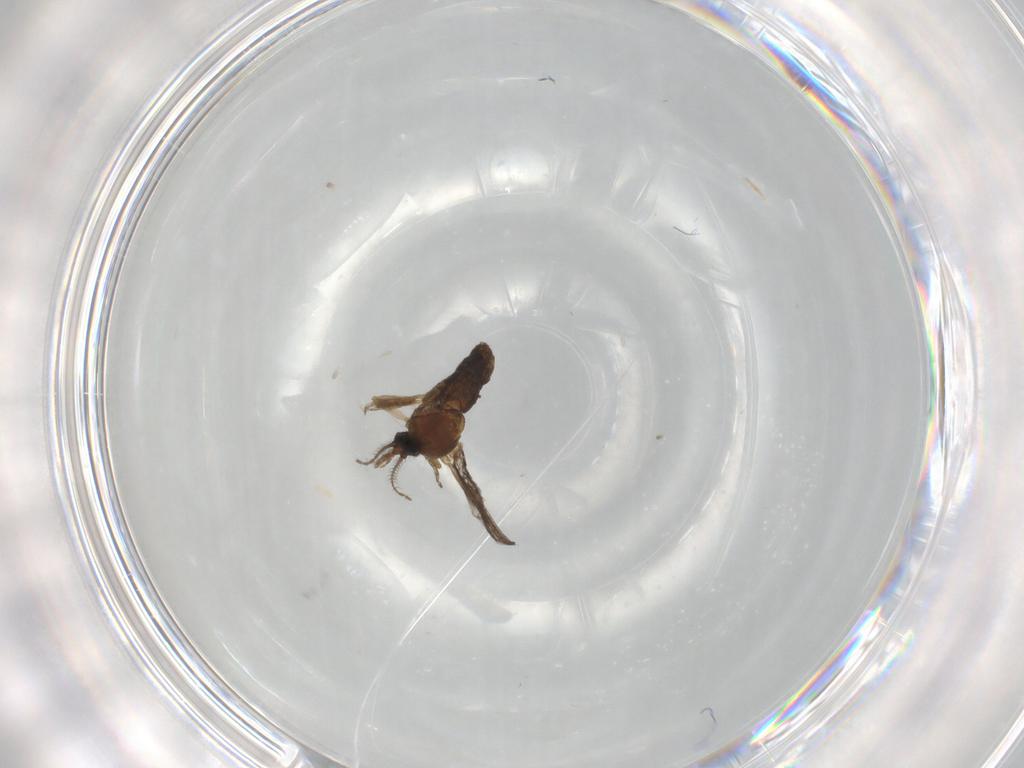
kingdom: Animalia
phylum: Arthropoda
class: Insecta
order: Diptera
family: Ceratopogonidae
